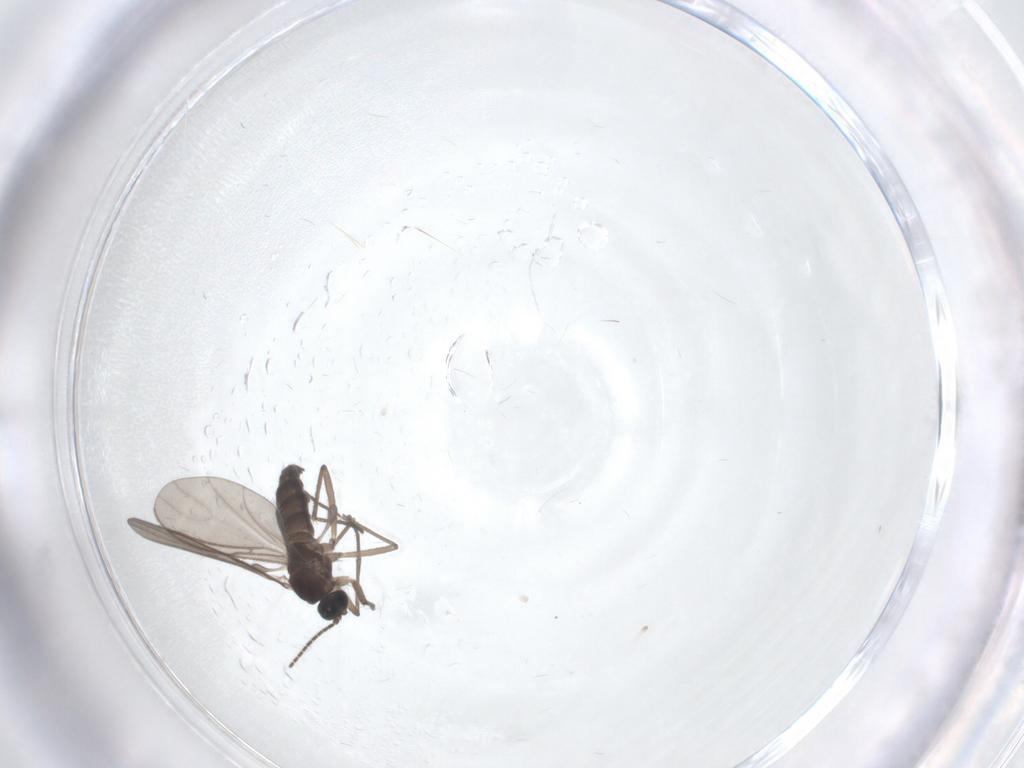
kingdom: Animalia
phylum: Arthropoda
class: Insecta
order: Diptera
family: Sciaridae
